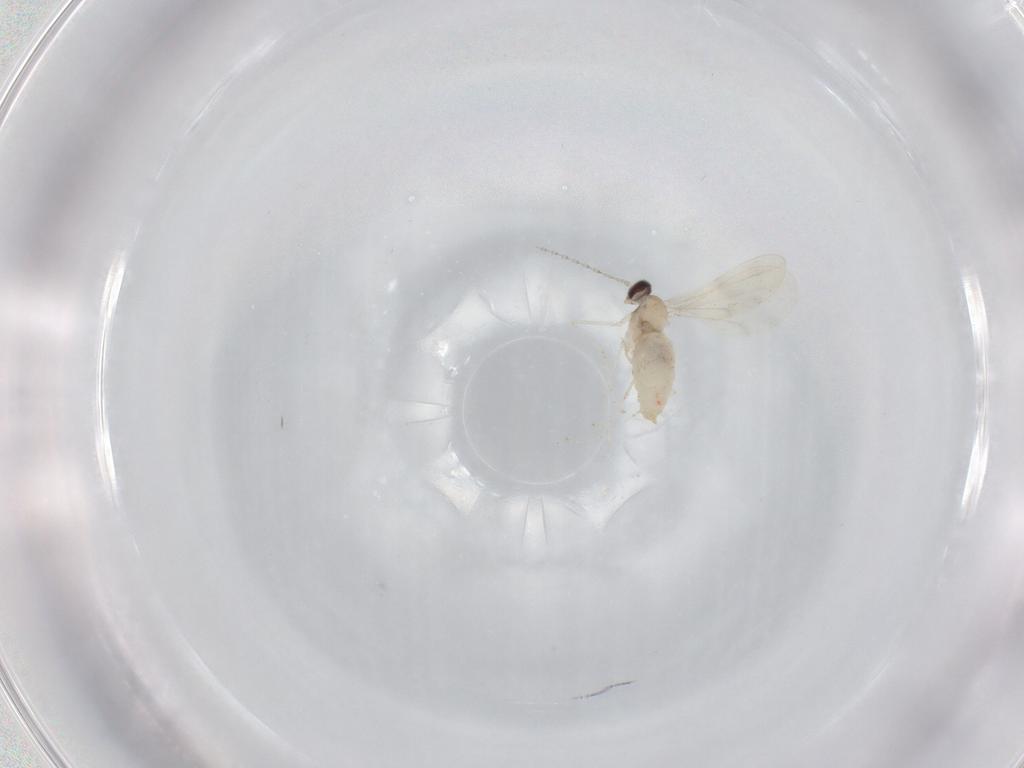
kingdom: Animalia
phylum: Arthropoda
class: Insecta
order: Diptera
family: Cecidomyiidae
